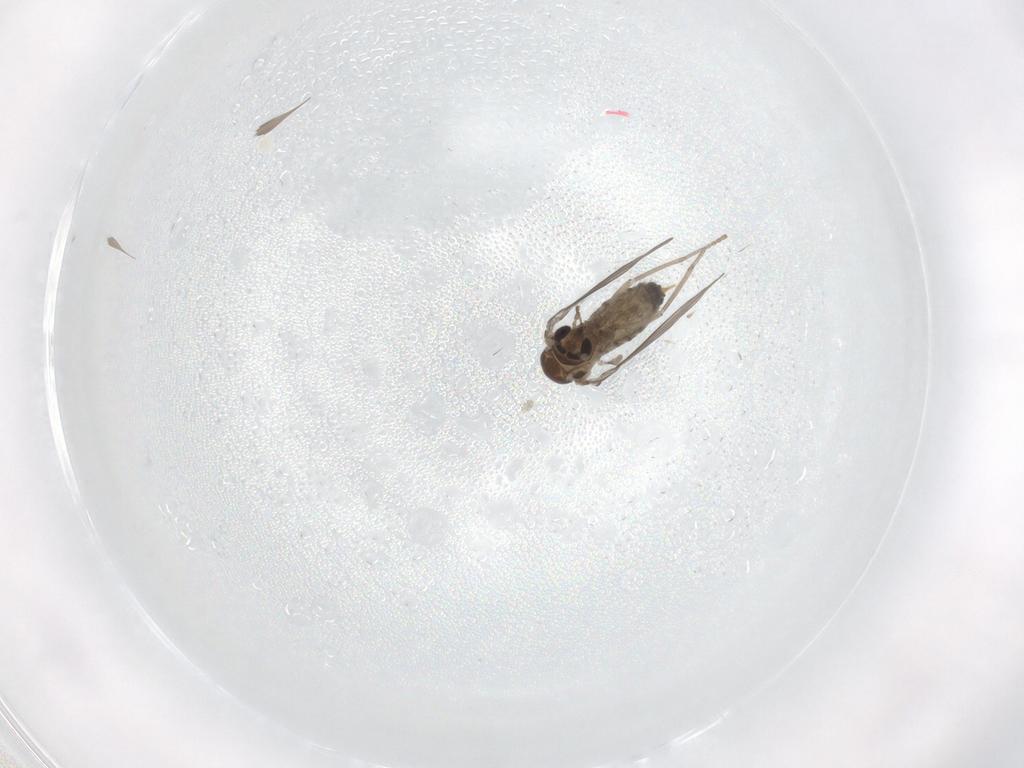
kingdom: Animalia
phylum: Arthropoda
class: Insecta
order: Diptera
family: Psychodidae
